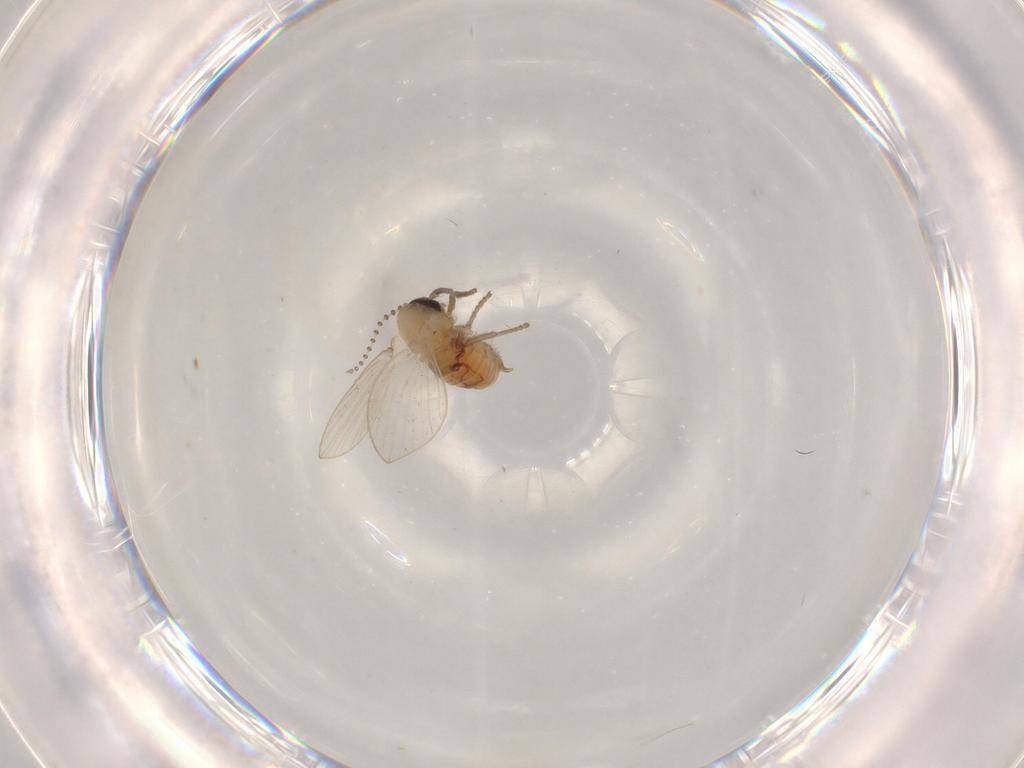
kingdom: Animalia
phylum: Arthropoda
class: Insecta
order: Diptera
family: Psychodidae
